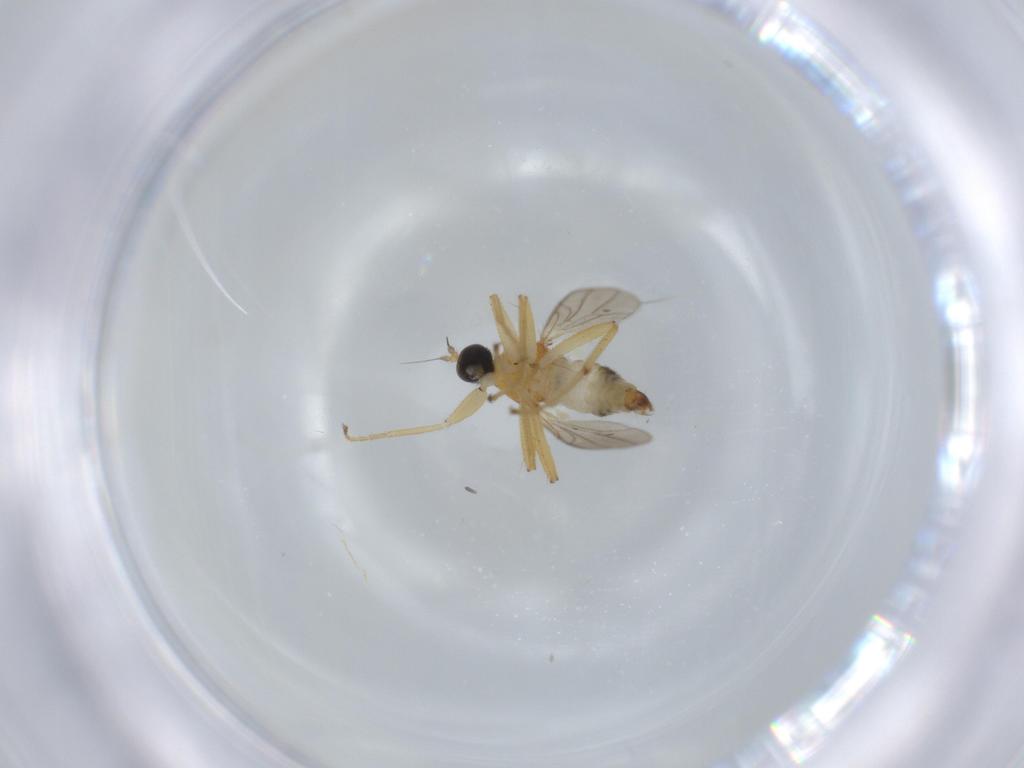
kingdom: Animalia
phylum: Arthropoda
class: Insecta
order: Diptera
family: Hybotidae
